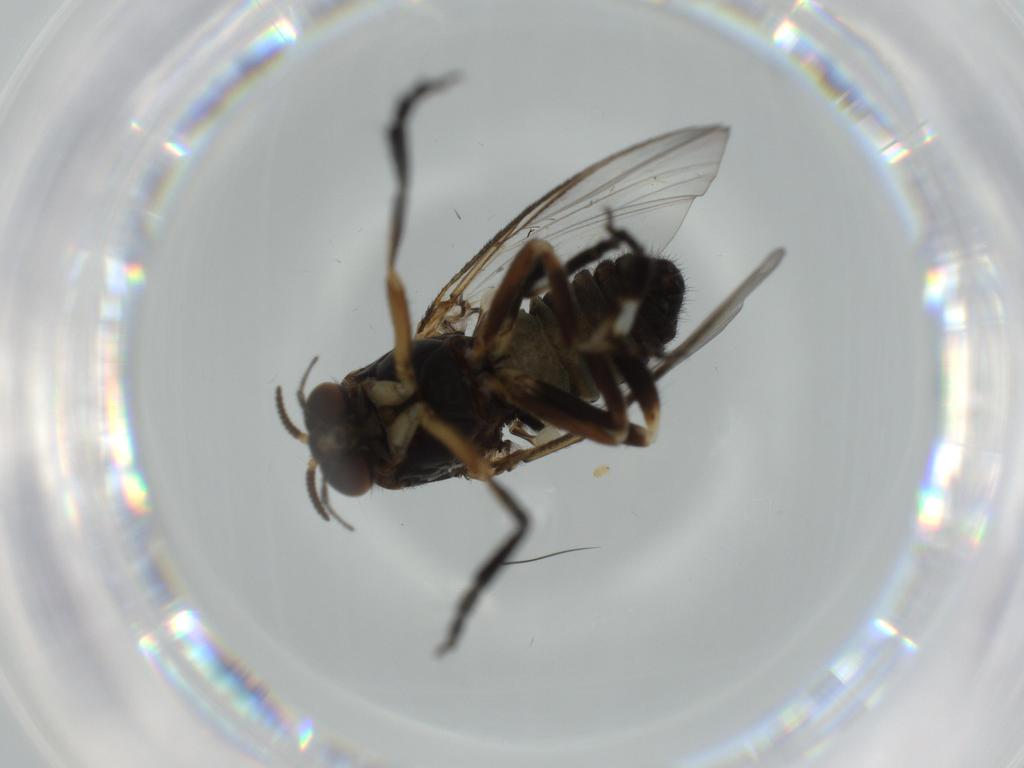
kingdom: Animalia
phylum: Arthropoda
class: Insecta
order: Diptera
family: Sciaridae
